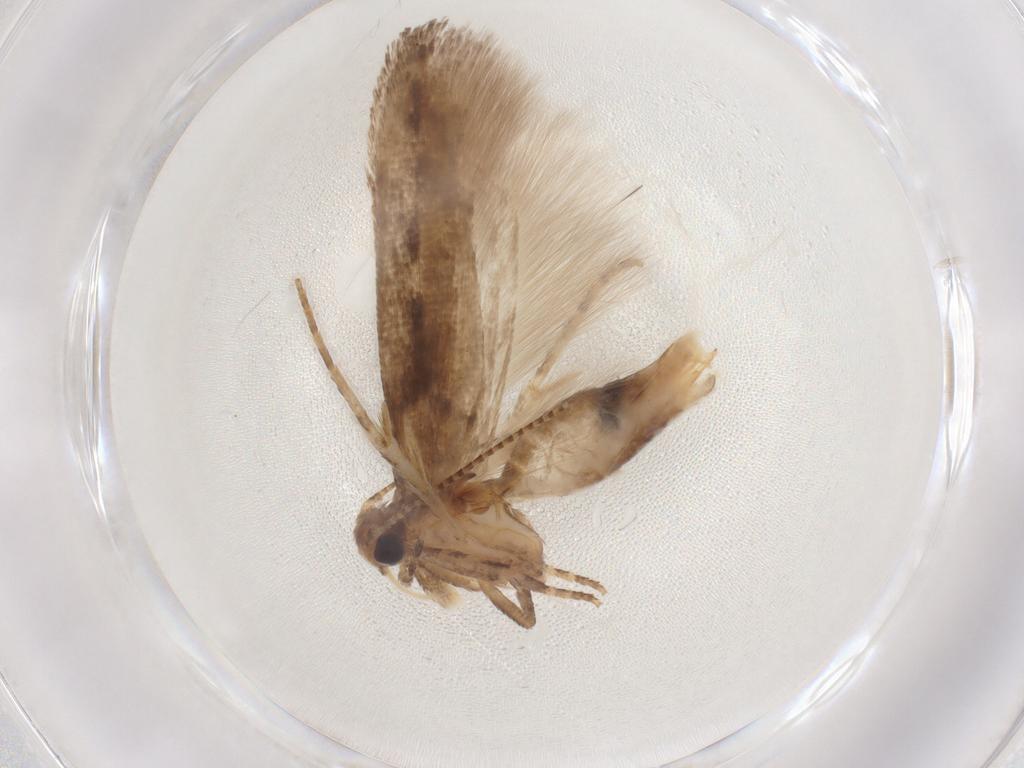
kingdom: Animalia
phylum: Arthropoda
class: Insecta
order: Lepidoptera
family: Gelechiidae
